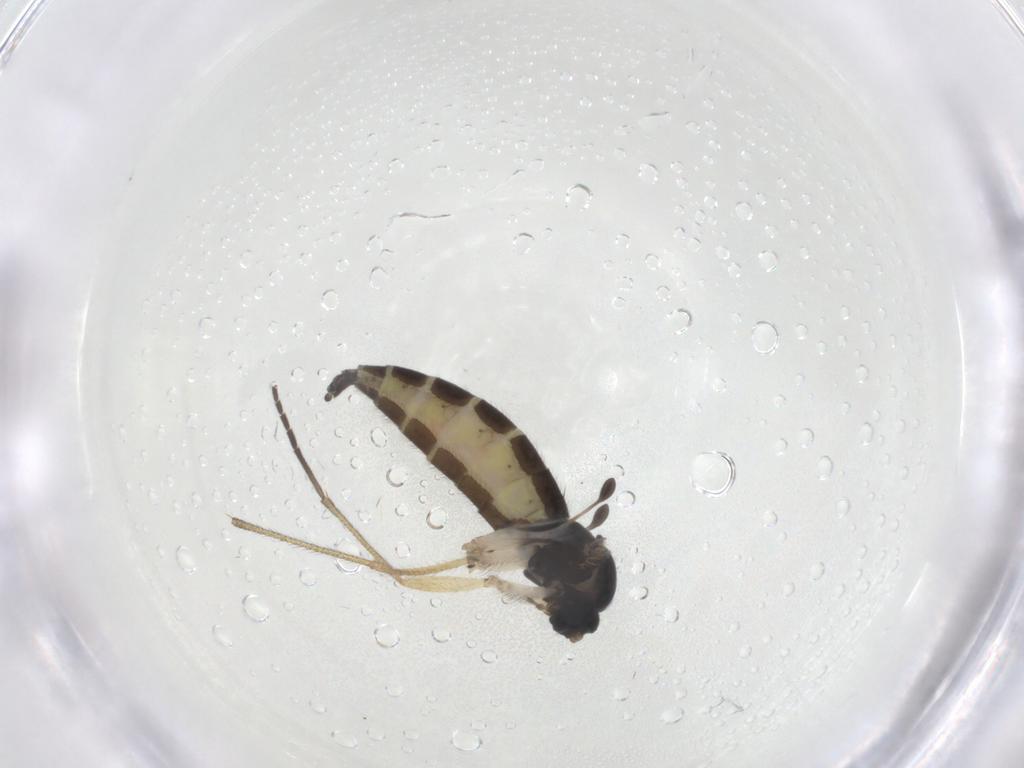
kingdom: Animalia
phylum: Arthropoda
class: Insecta
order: Diptera
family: Sciaridae
